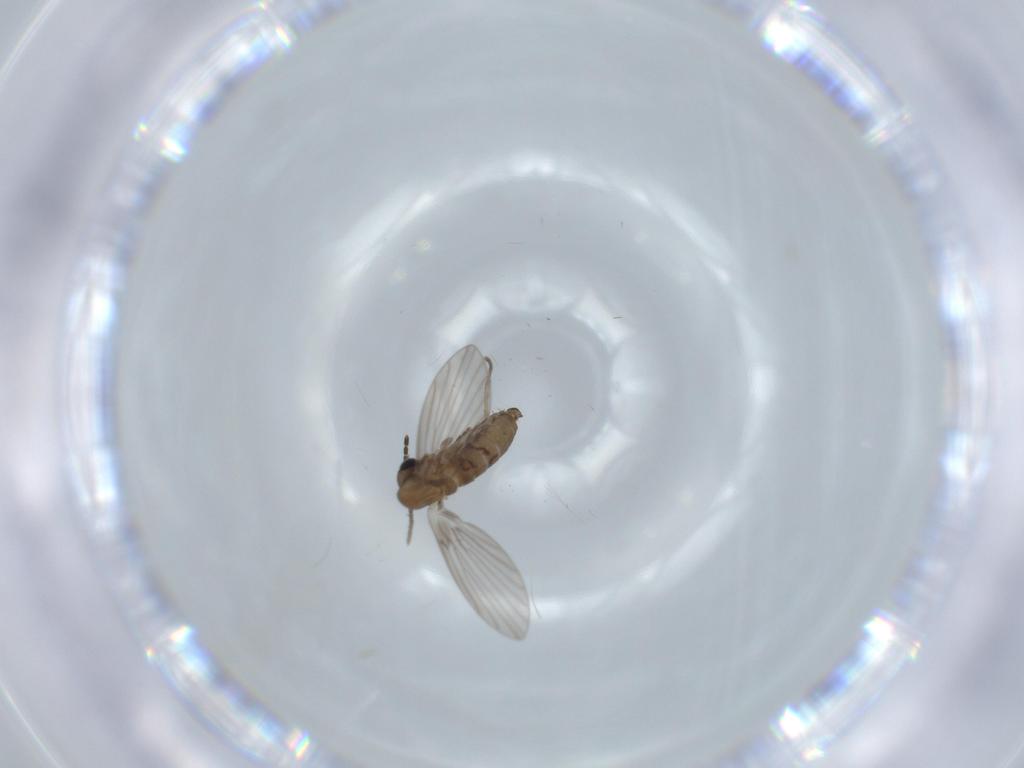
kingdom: Animalia
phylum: Arthropoda
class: Insecta
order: Diptera
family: Psychodidae
